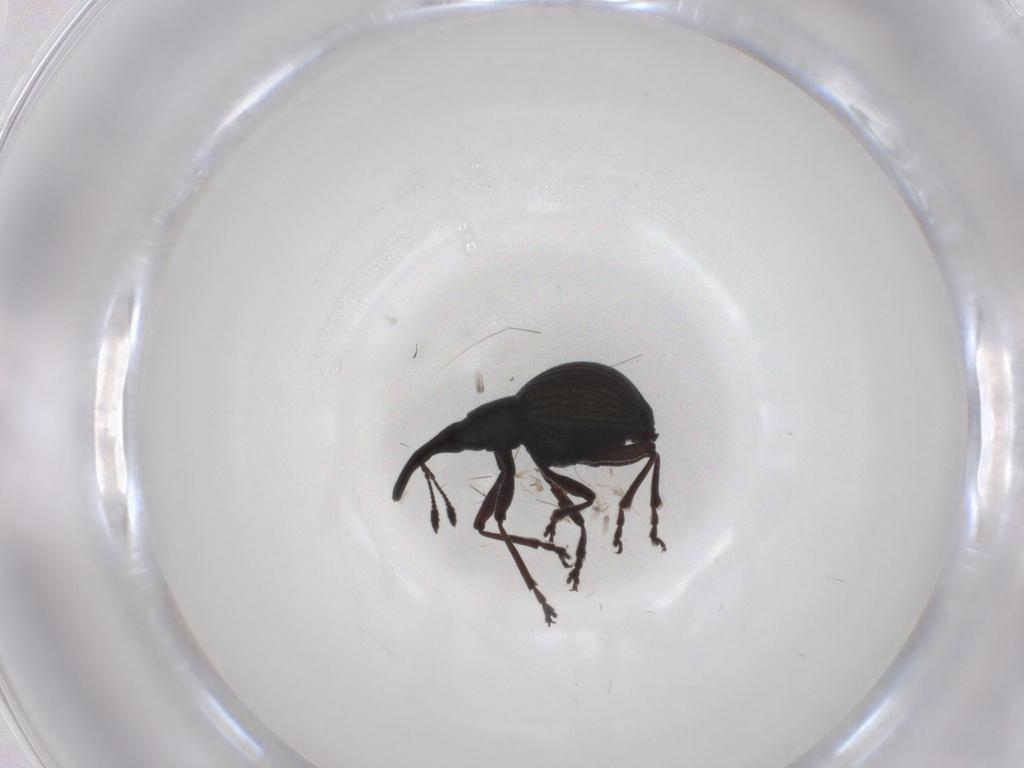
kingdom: Animalia
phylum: Arthropoda
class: Insecta
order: Coleoptera
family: Brentidae
